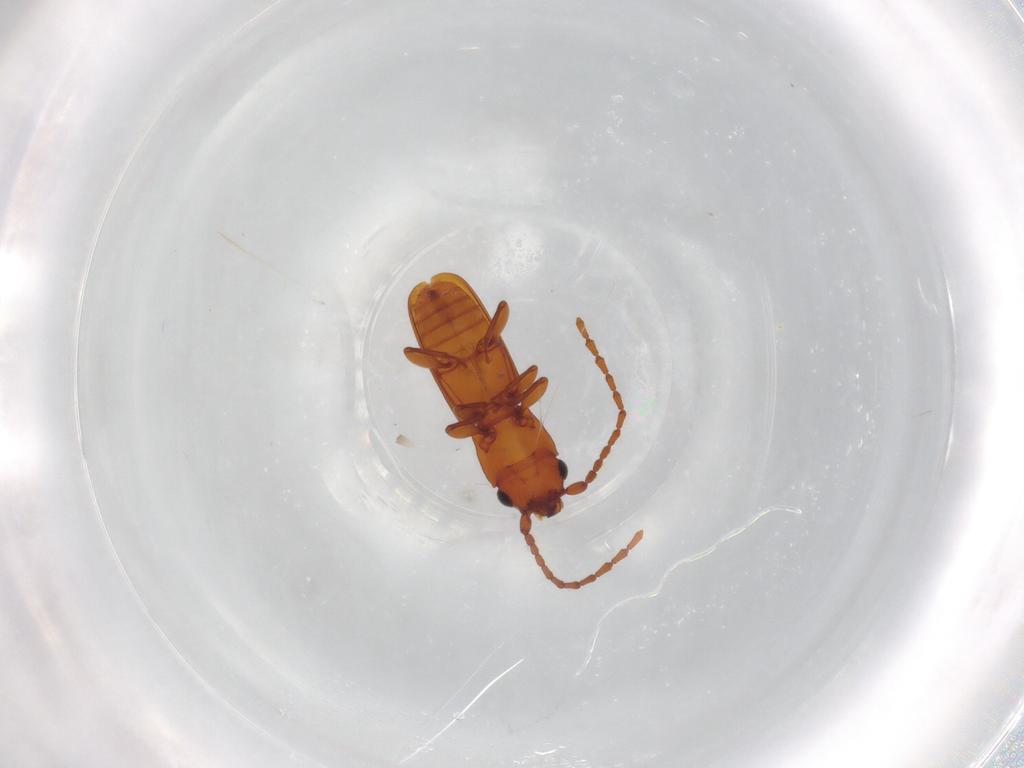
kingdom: Animalia
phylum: Arthropoda
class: Insecta
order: Coleoptera
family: Laemophloeidae
